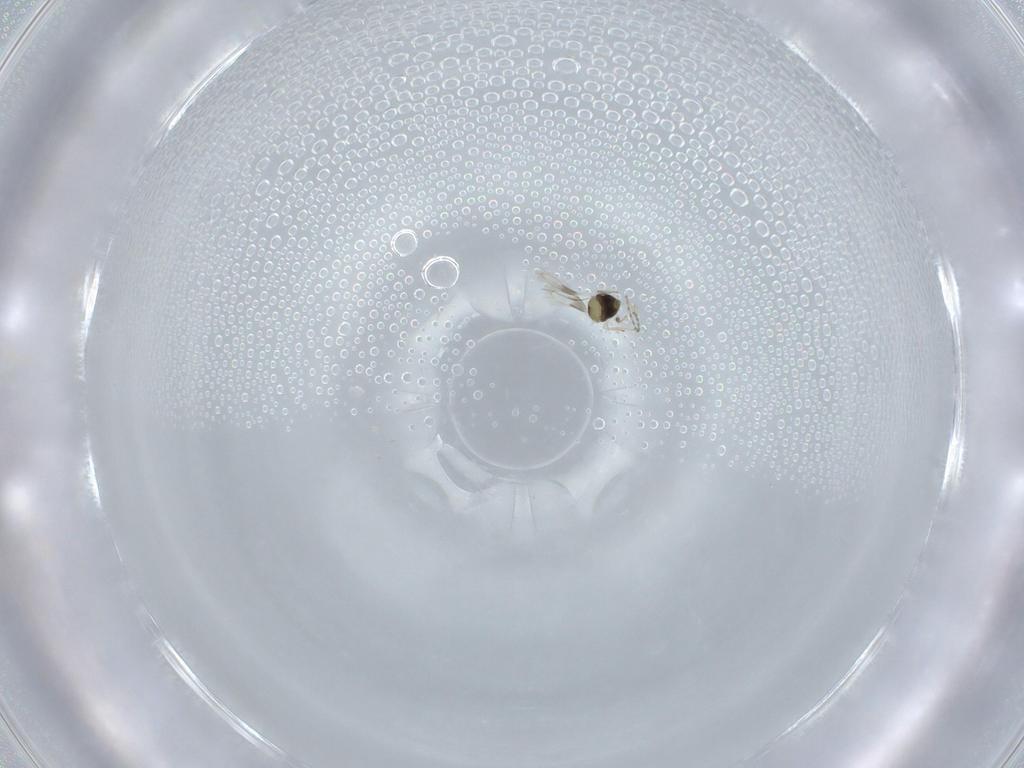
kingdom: Animalia
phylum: Arthropoda
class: Insecta
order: Hymenoptera
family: Aphelinidae
